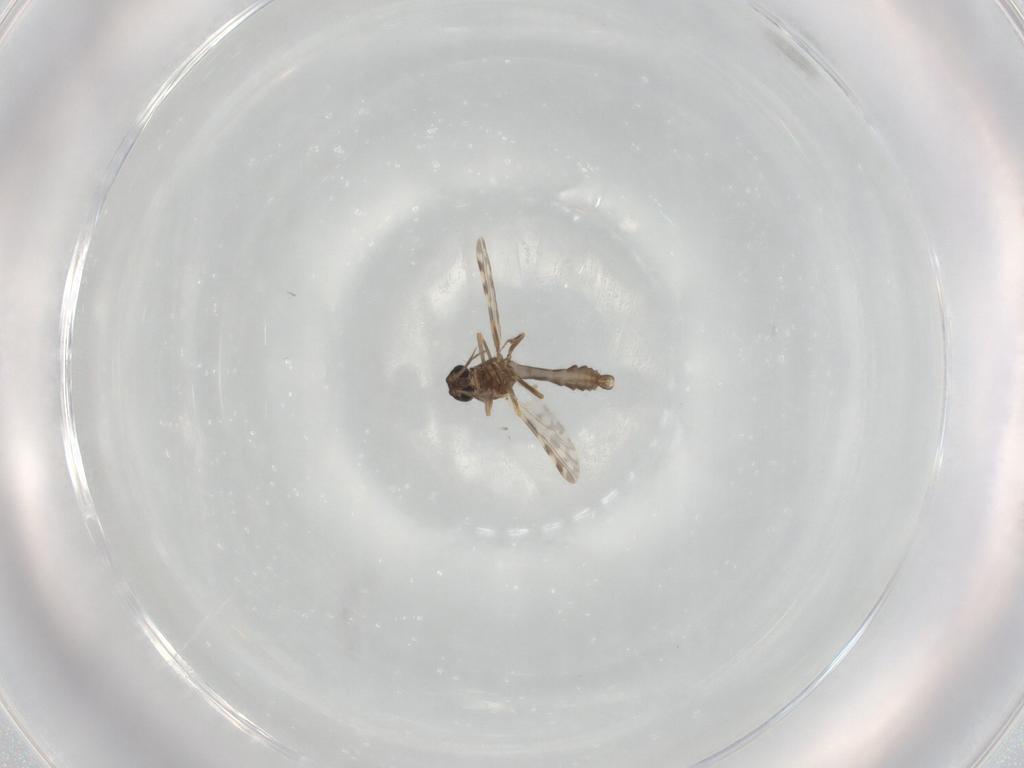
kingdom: Animalia
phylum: Arthropoda
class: Insecta
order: Diptera
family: Ceratopogonidae
